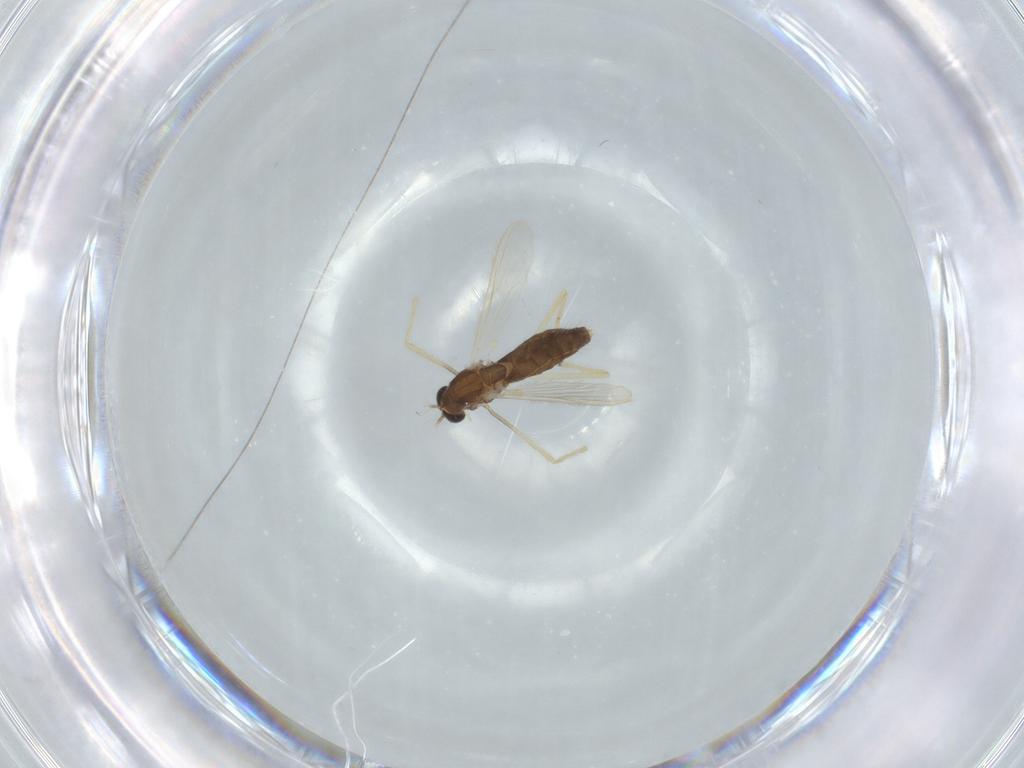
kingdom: Animalia
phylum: Arthropoda
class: Insecta
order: Diptera
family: Chironomidae
